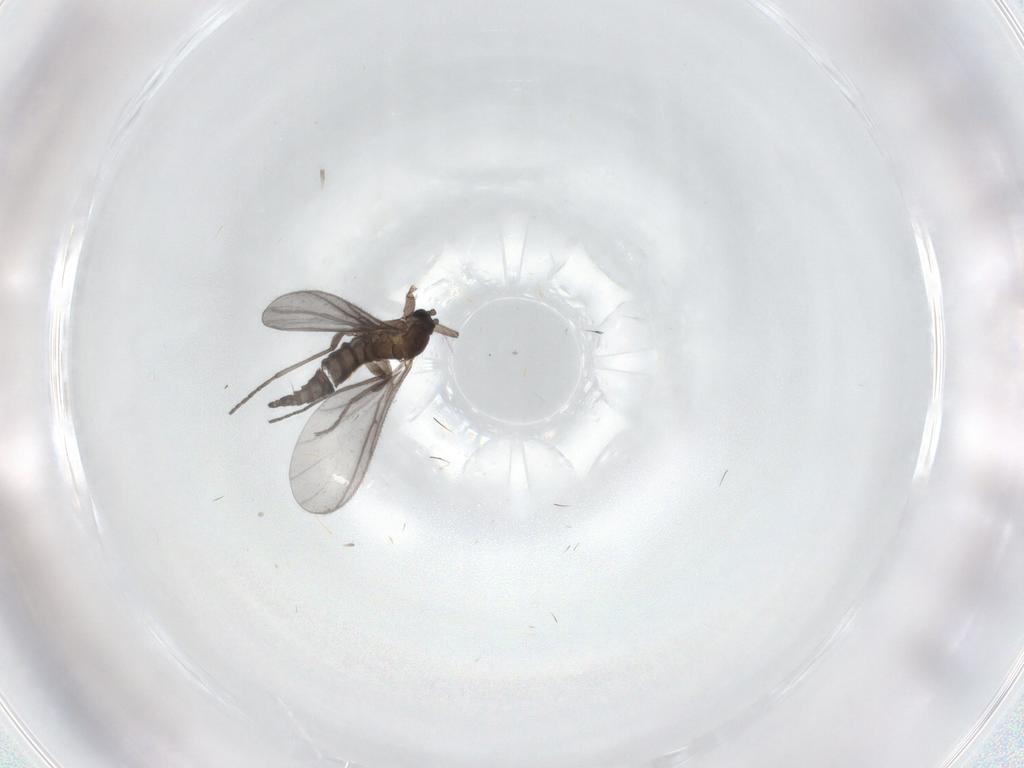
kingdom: Animalia
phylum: Arthropoda
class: Insecta
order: Diptera
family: Sciaridae
